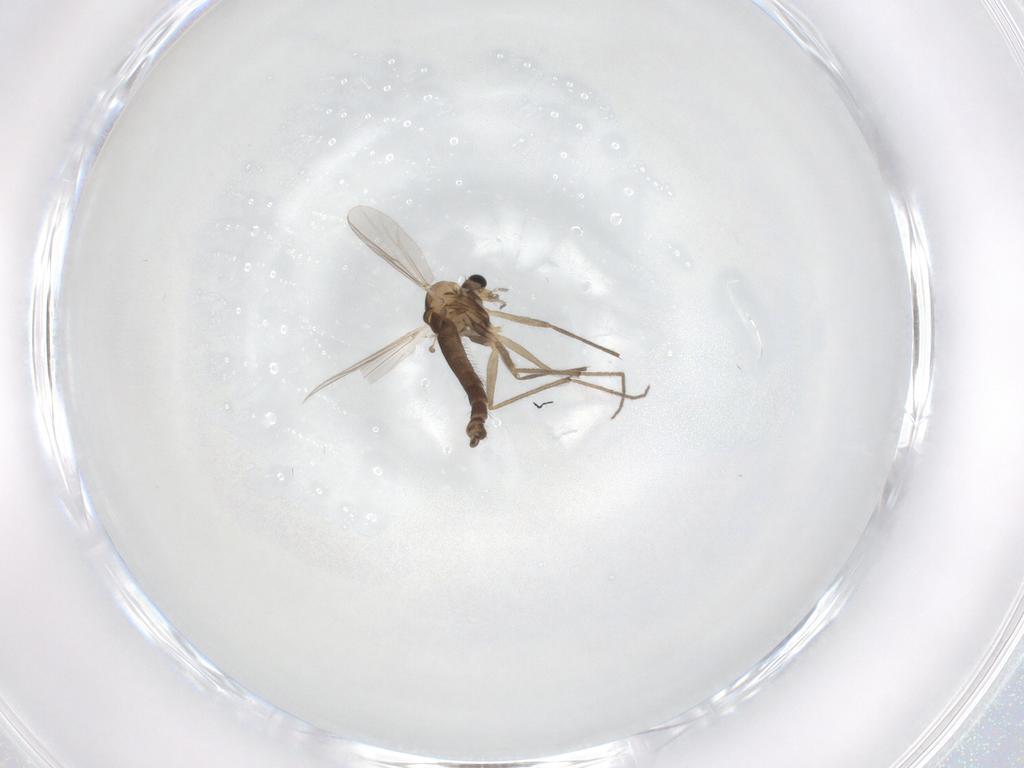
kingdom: Animalia
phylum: Arthropoda
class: Insecta
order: Diptera
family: Chironomidae
